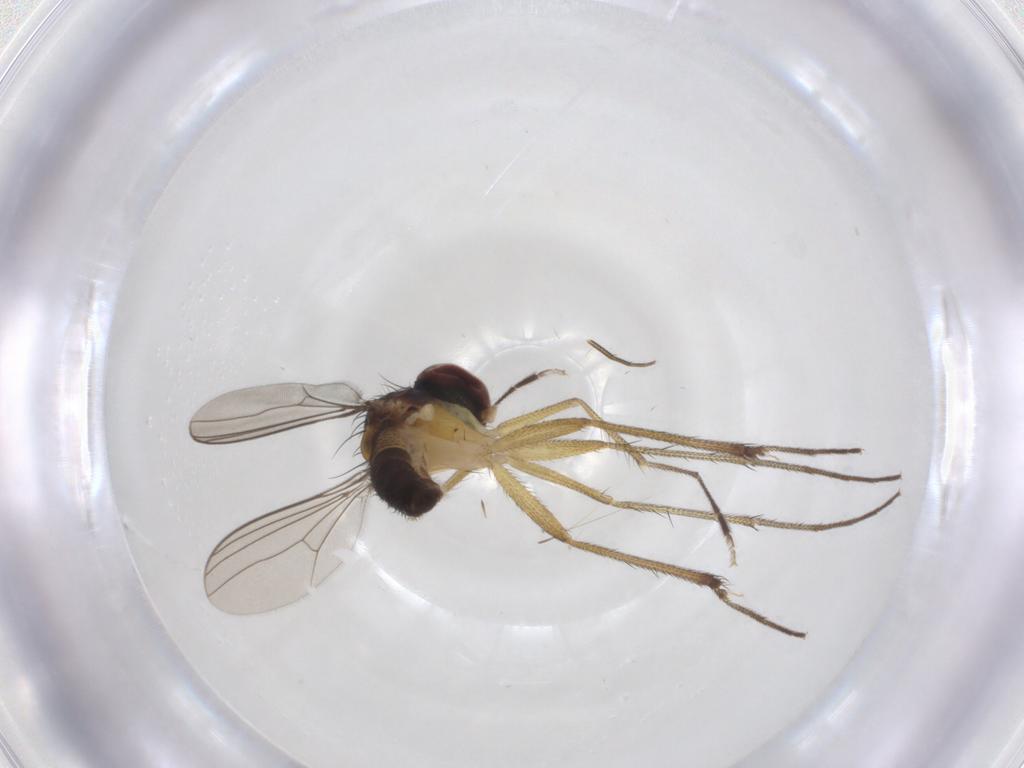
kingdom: Animalia
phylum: Arthropoda
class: Insecta
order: Diptera
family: Dolichopodidae
